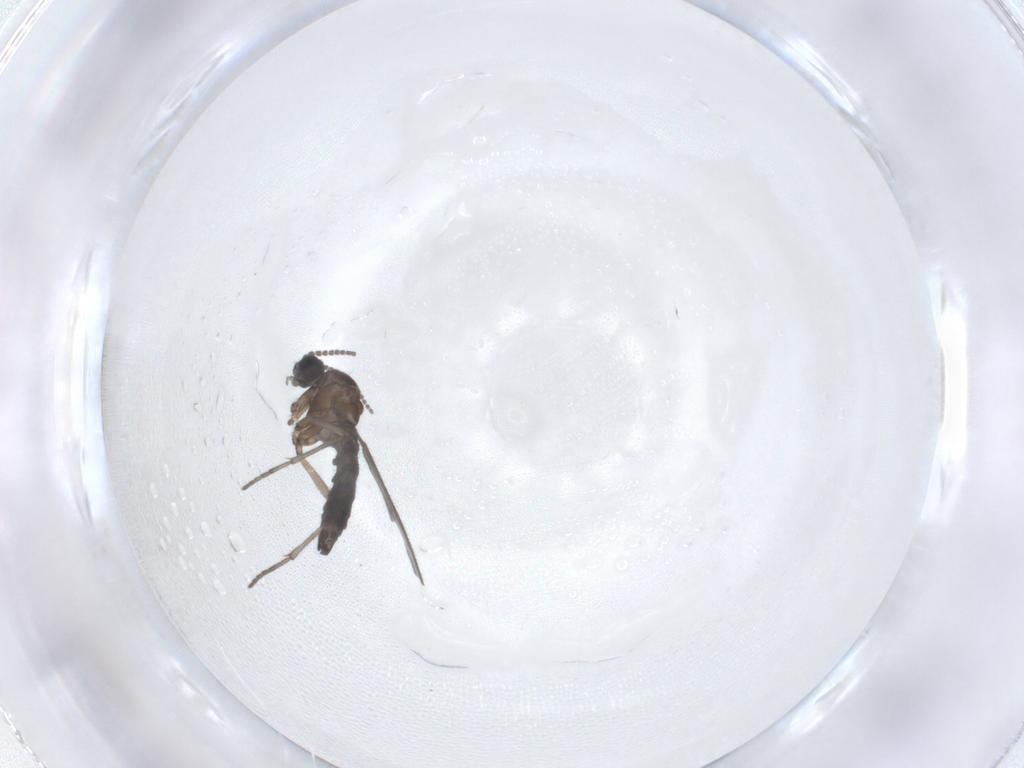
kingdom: Animalia
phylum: Arthropoda
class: Insecta
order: Diptera
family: Sciaridae
